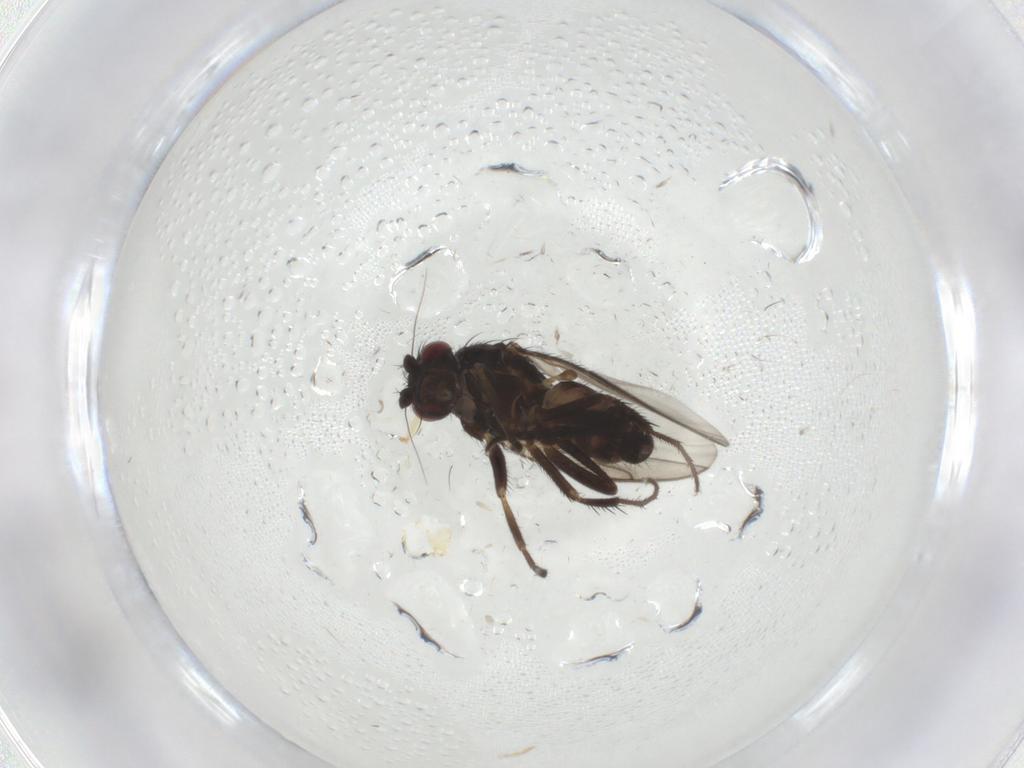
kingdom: Animalia
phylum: Arthropoda
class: Insecta
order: Diptera
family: Sphaeroceridae
